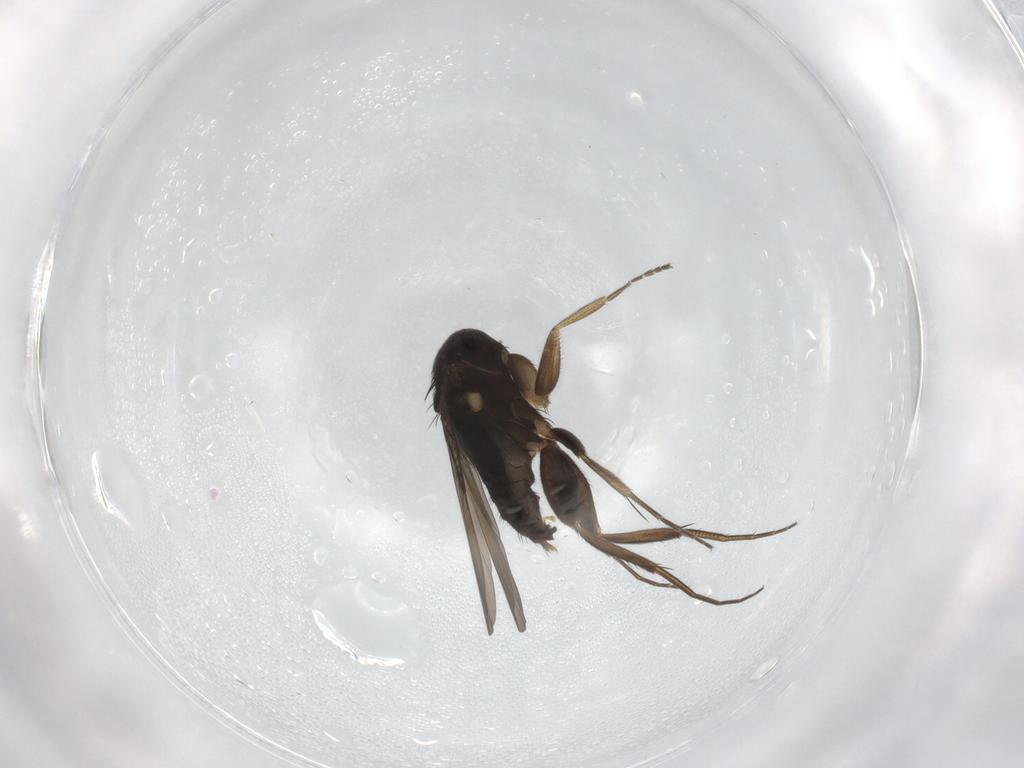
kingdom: Animalia
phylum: Arthropoda
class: Insecta
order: Diptera
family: Phoridae
